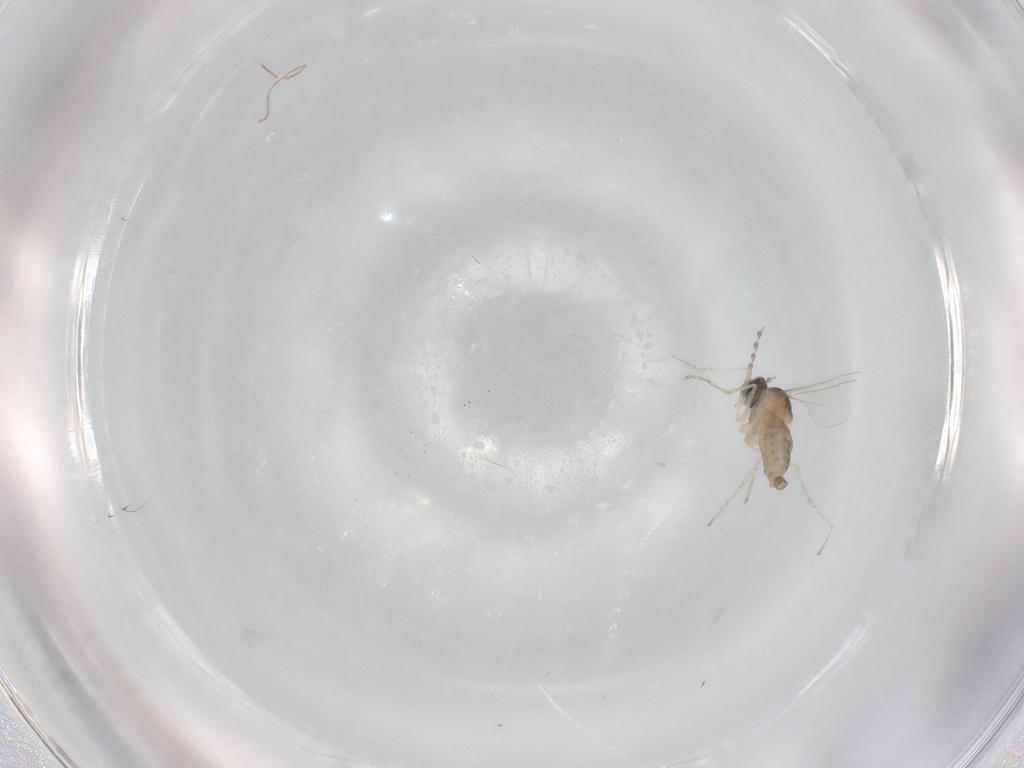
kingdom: Animalia
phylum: Arthropoda
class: Insecta
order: Diptera
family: Cecidomyiidae
